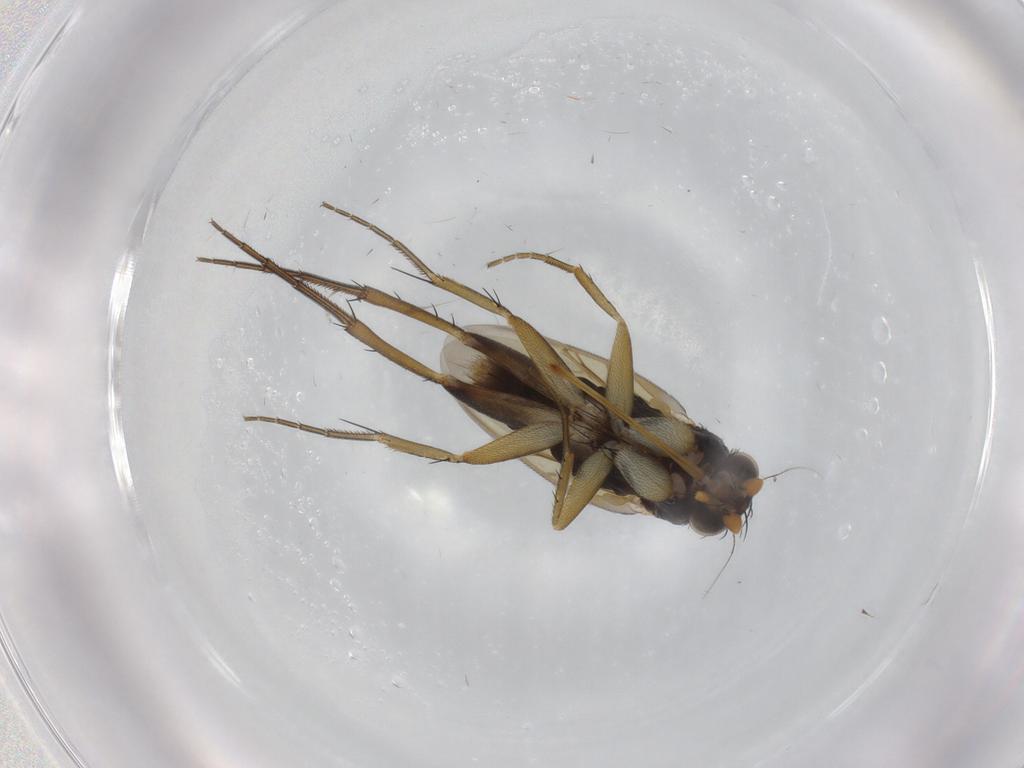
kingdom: Animalia
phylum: Arthropoda
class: Insecta
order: Diptera
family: Phoridae
